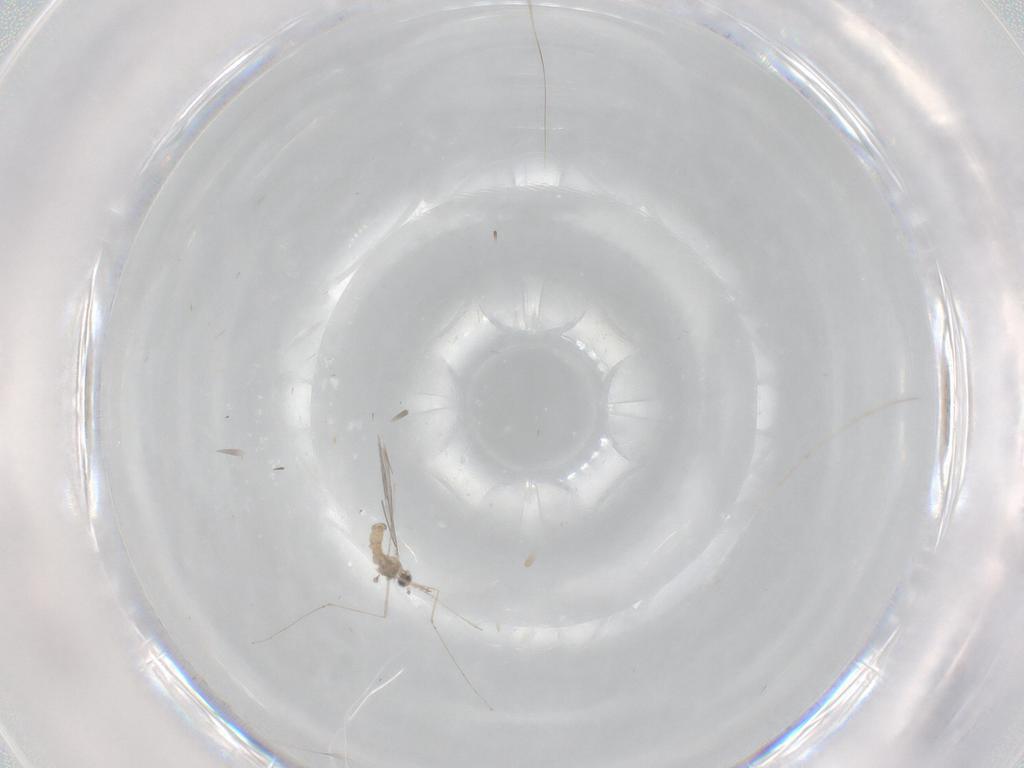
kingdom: Animalia
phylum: Arthropoda
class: Insecta
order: Diptera
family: Cecidomyiidae
